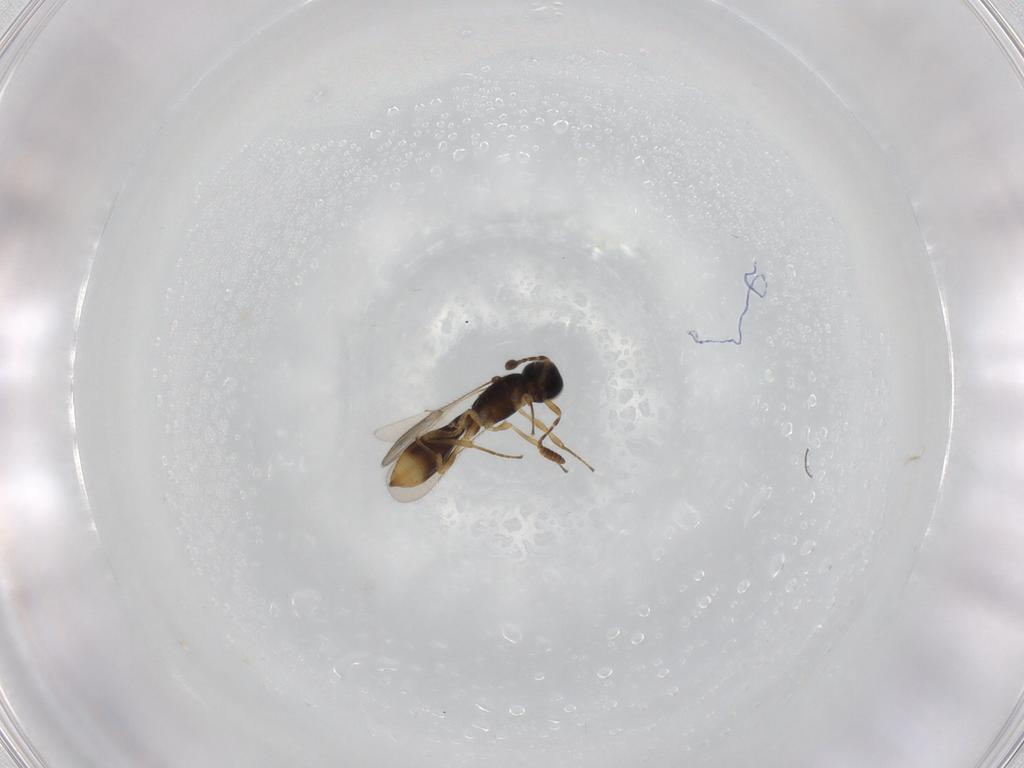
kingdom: Animalia
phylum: Arthropoda
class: Insecta
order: Hymenoptera
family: Scelionidae
